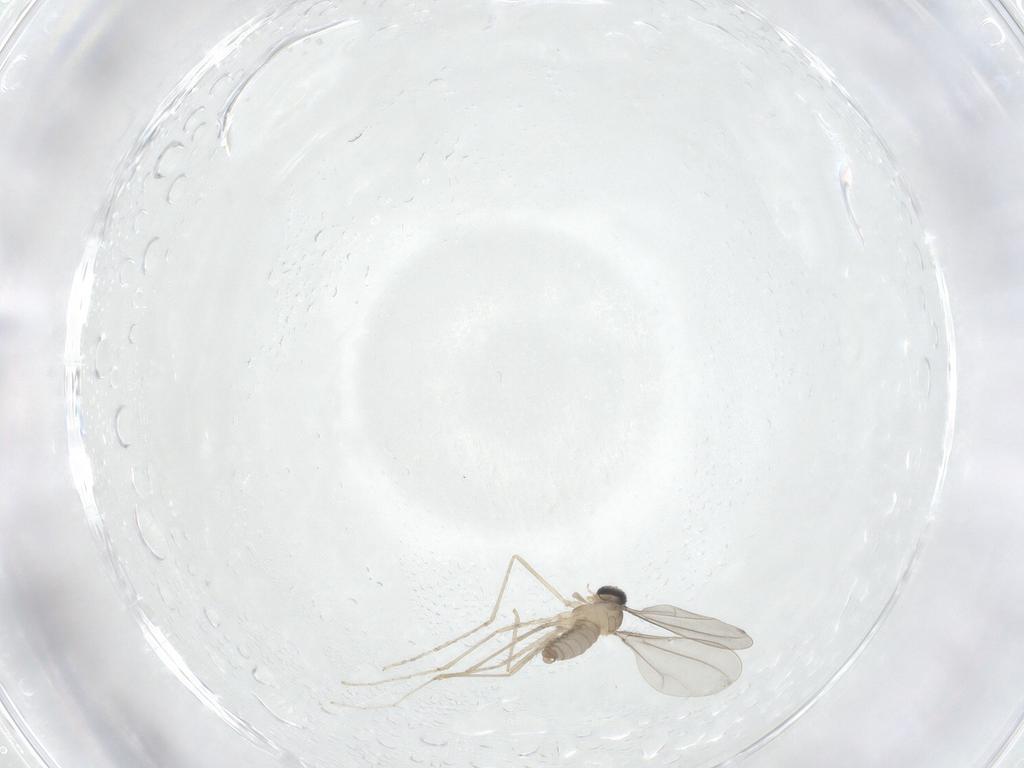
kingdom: Animalia
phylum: Arthropoda
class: Insecta
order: Diptera
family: Cecidomyiidae
